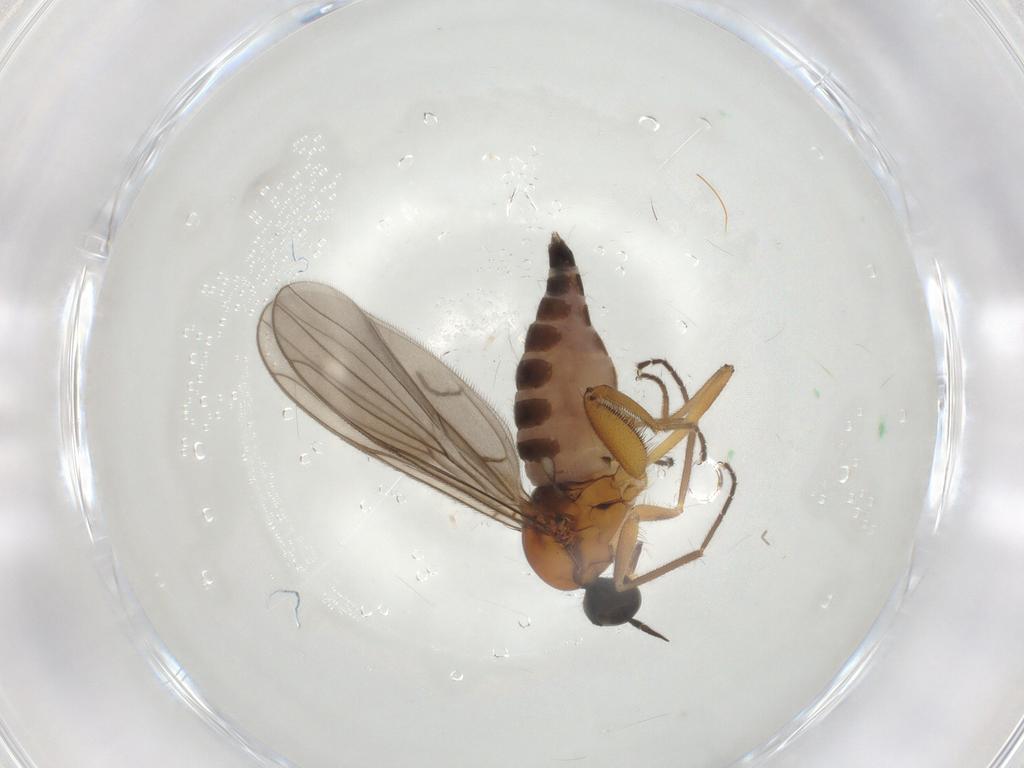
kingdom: Animalia
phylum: Arthropoda
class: Insecta
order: Diptera
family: Hybotidae
